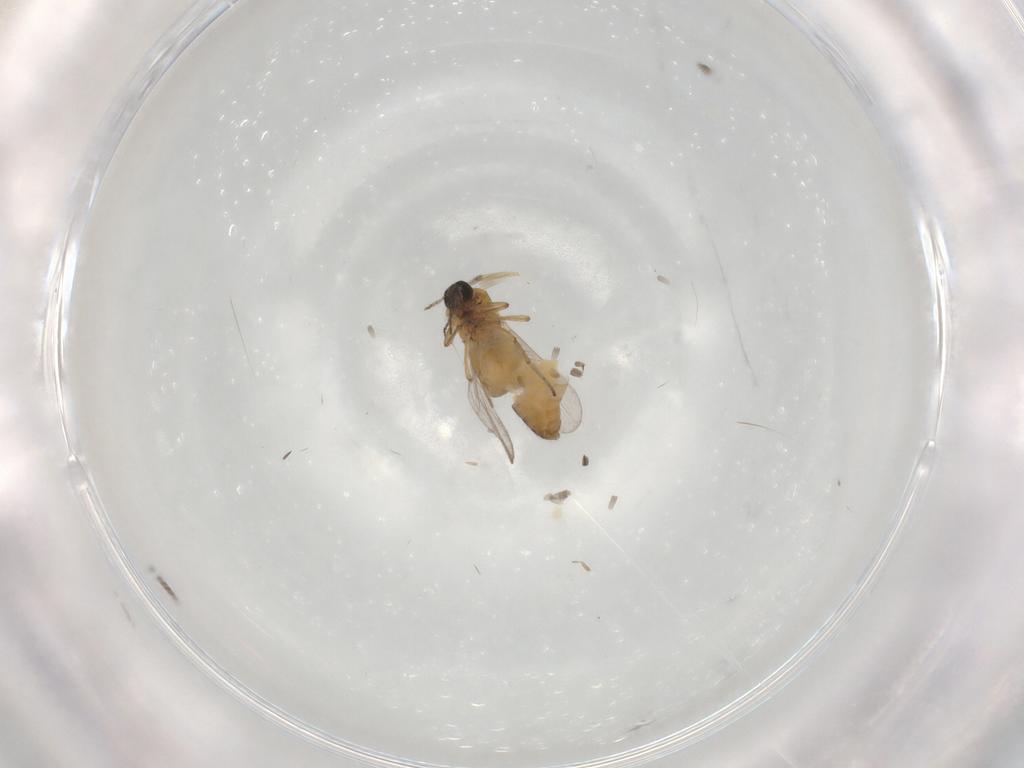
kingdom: Animalia
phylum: Arthropoda
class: Insecta
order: Diptera
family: Ceratopogonidae
